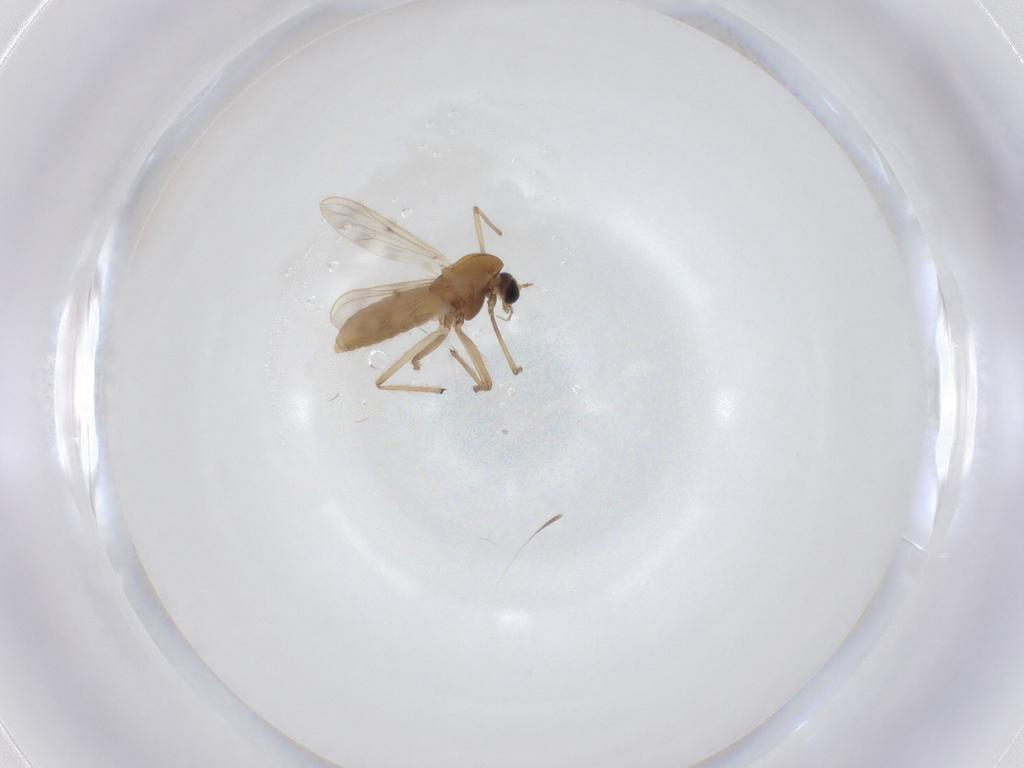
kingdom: Animalia
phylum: Arthropoda
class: Insecta
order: Diptera
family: Chironomidae
